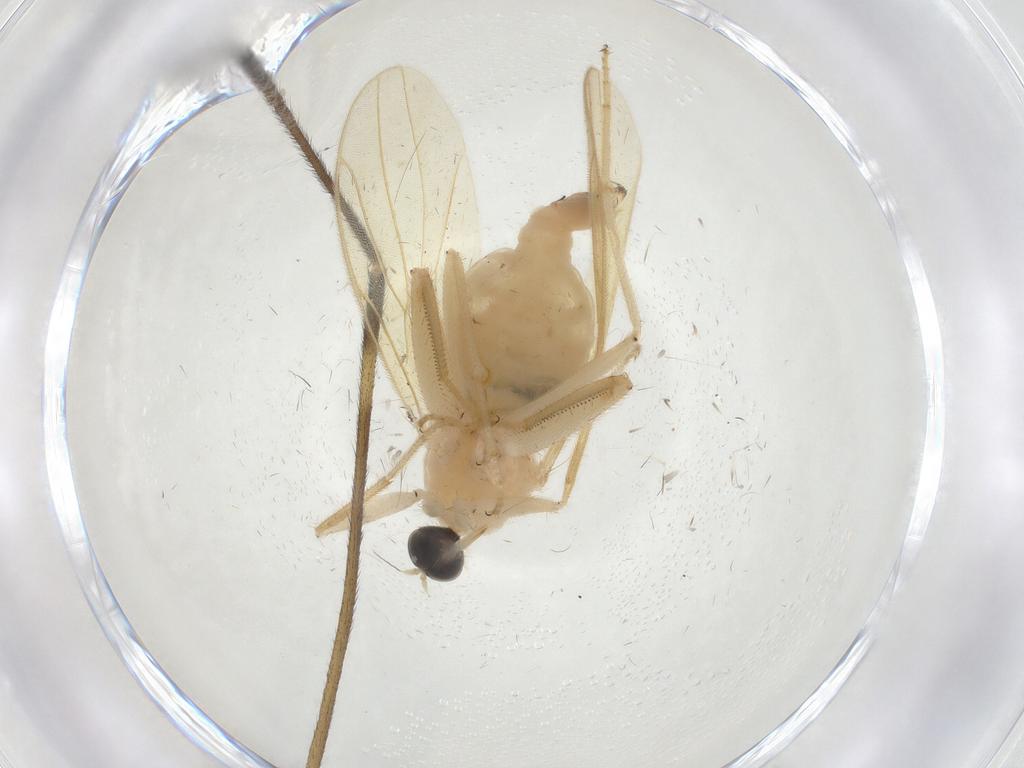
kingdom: Animalia
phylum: Arthropoda
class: Insecta
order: Diptera
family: Hybotidae
